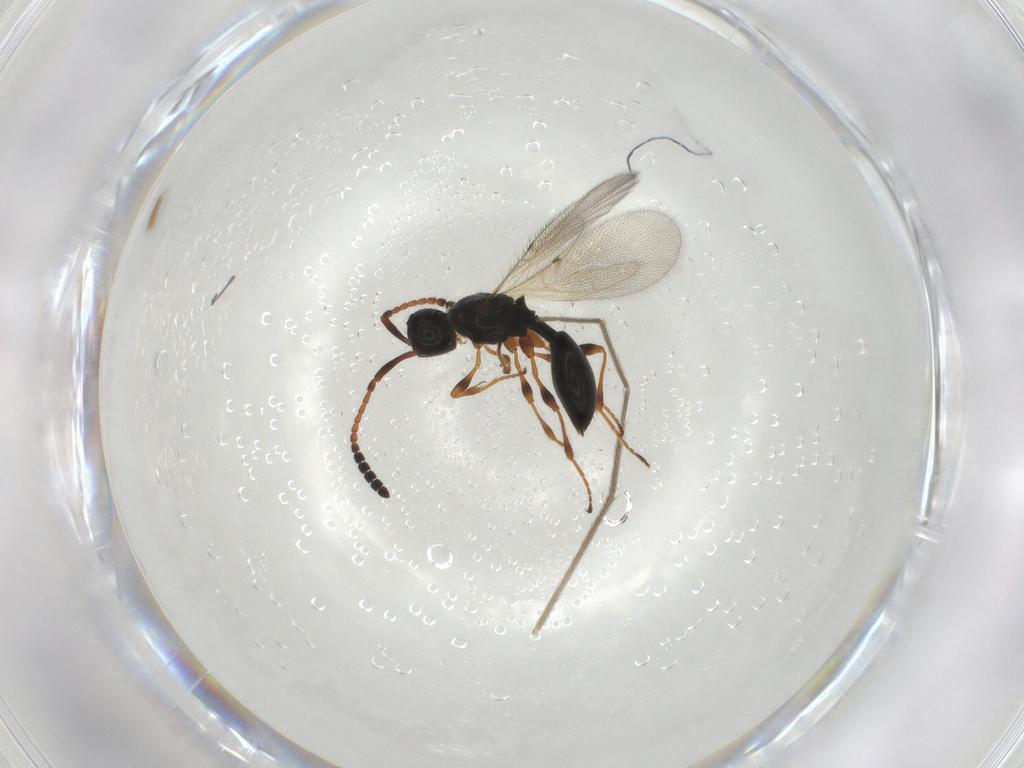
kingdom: Animalia
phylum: Arthropoda
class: Insecta
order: Hymenoptera
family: Diapriidae
